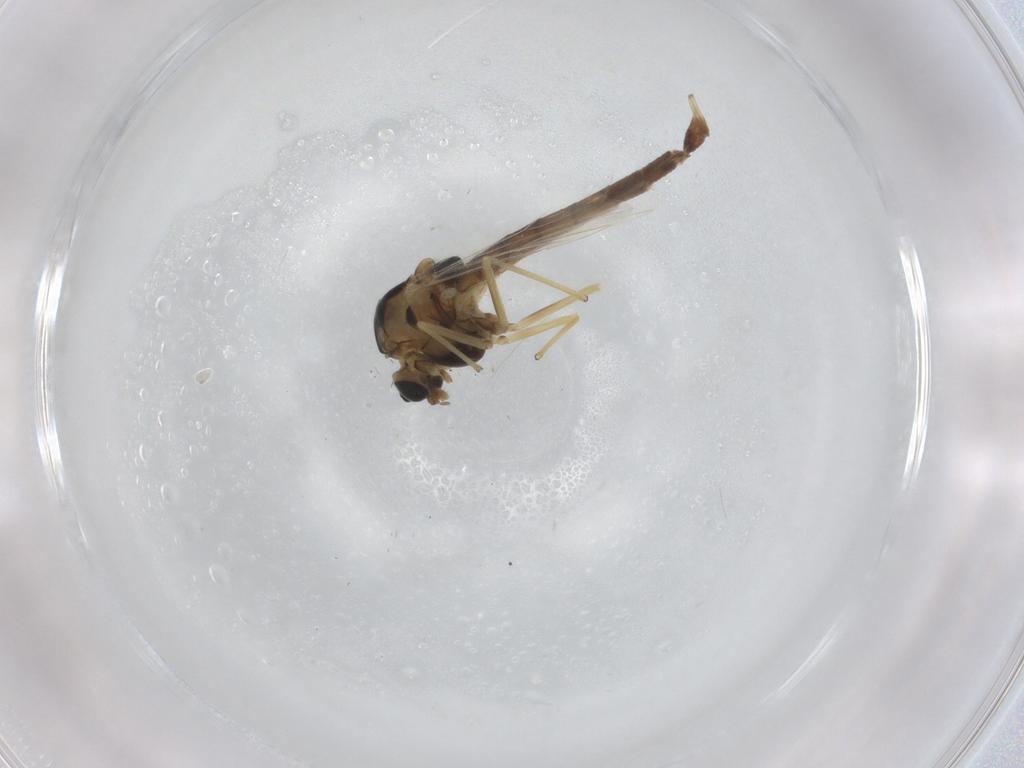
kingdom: Animalia
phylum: Arthropoda
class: Insecta
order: Diptera
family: Chironomidae
